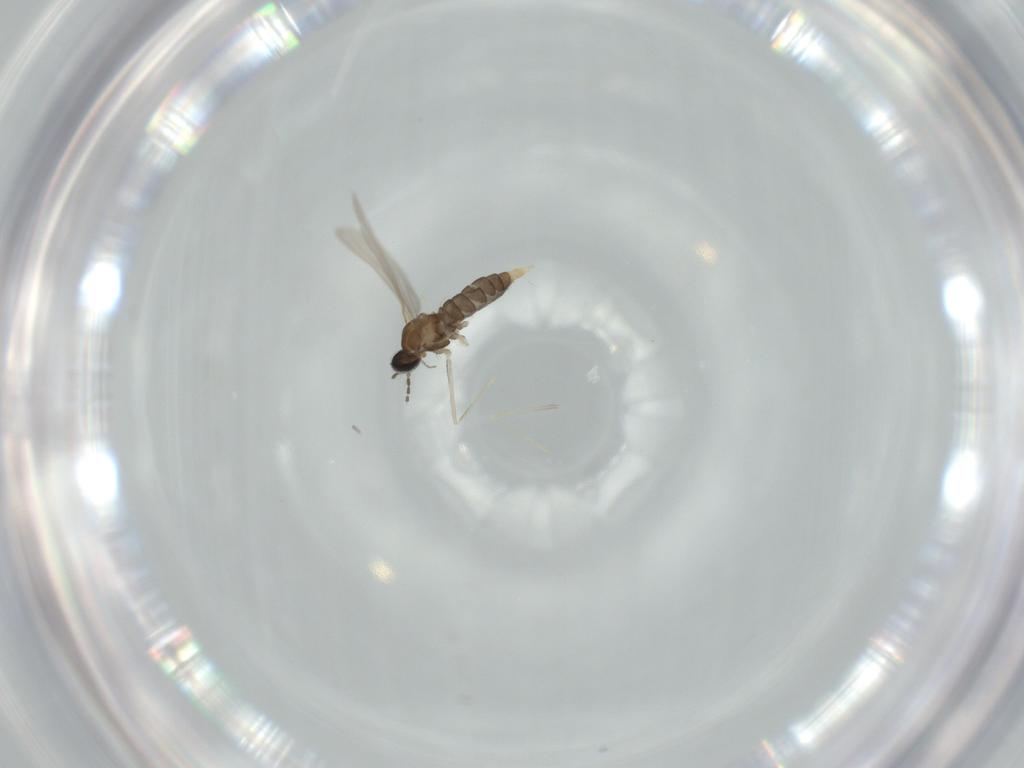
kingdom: Animalia
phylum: Arthropoda
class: Insecta
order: Diptera
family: Cecidomyiidae
